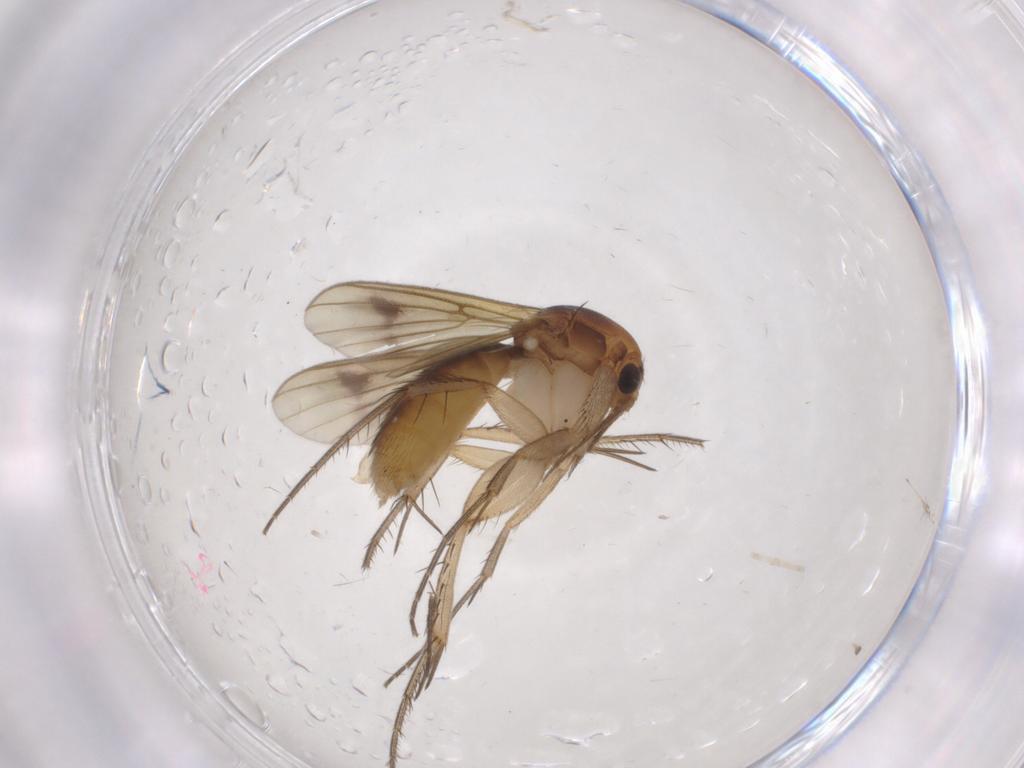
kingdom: Animalia
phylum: Arthropoda
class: Insecta
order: Diptera
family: Mycetophilidae
